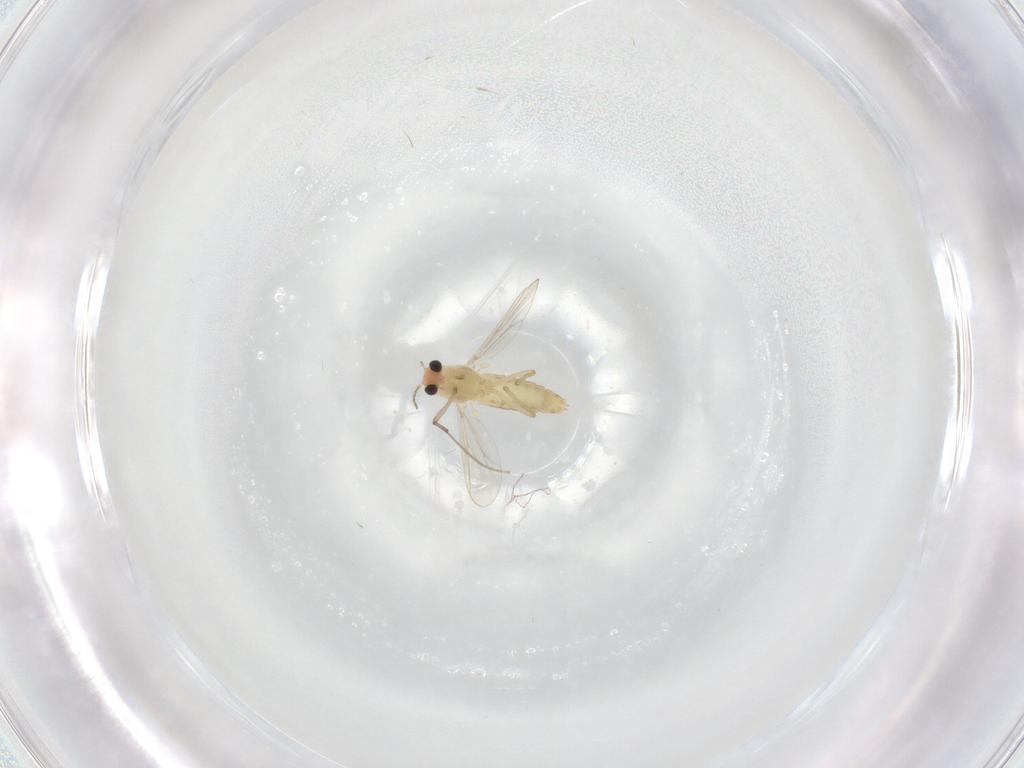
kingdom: Animalia
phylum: Arthropoda
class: Insecta
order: Diptera
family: Chironomidae
